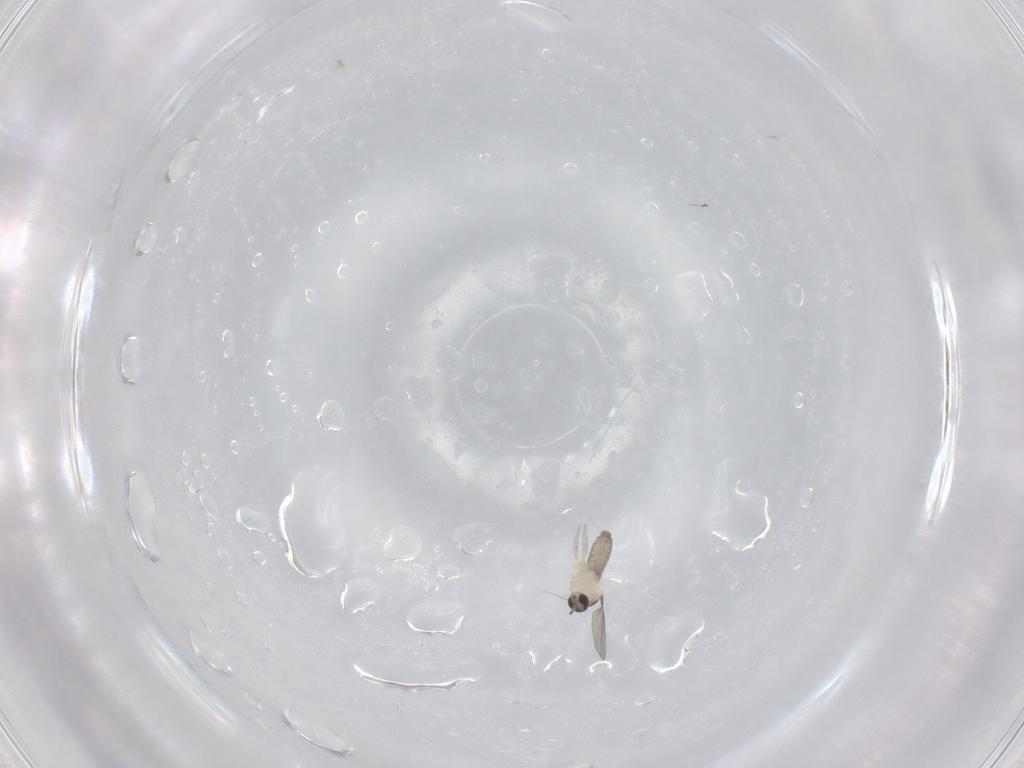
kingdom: Animalia
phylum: Arthropoda
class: Insecta
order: Diptera
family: Cecidomyiidae
